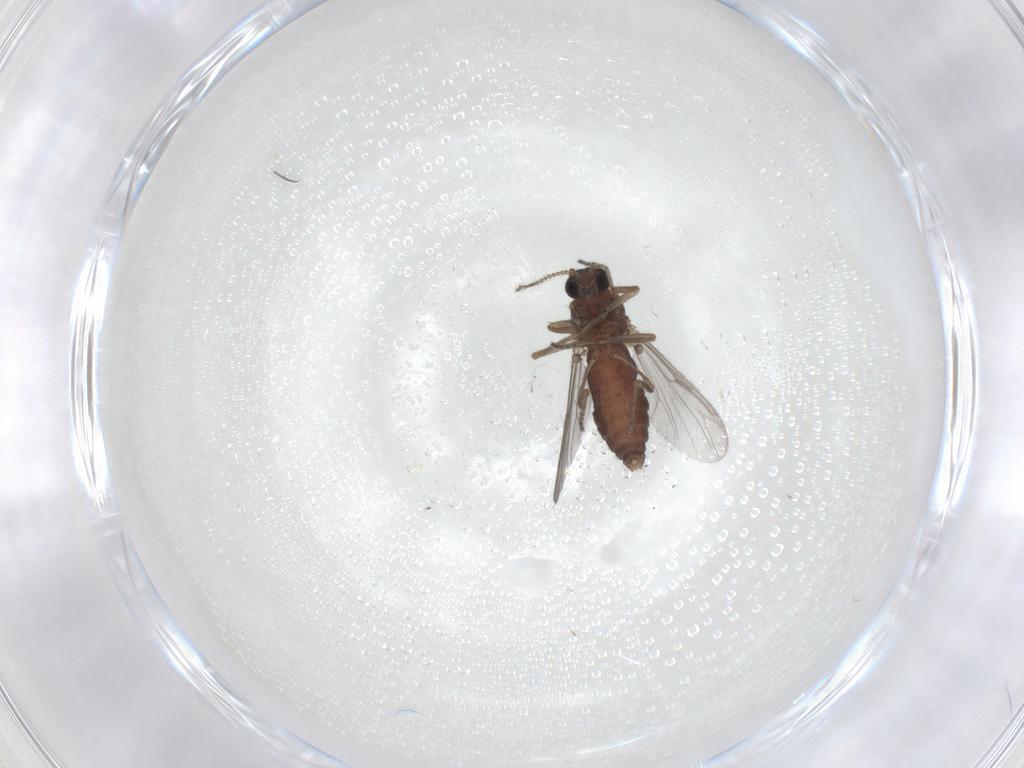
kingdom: Animalia
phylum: Arthropoda
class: Insecta
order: Diptera
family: Ceratopogonidae
